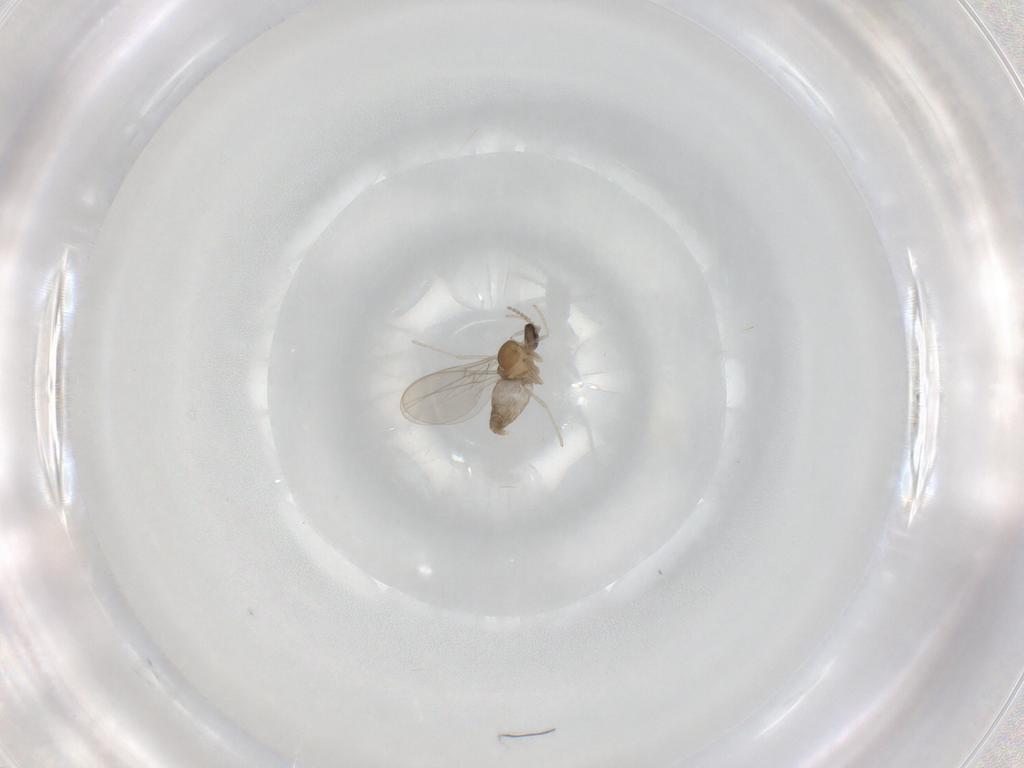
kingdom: Animalia
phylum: Arthropoda
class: Insecta
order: Diptera
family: Cecidomyiidae
